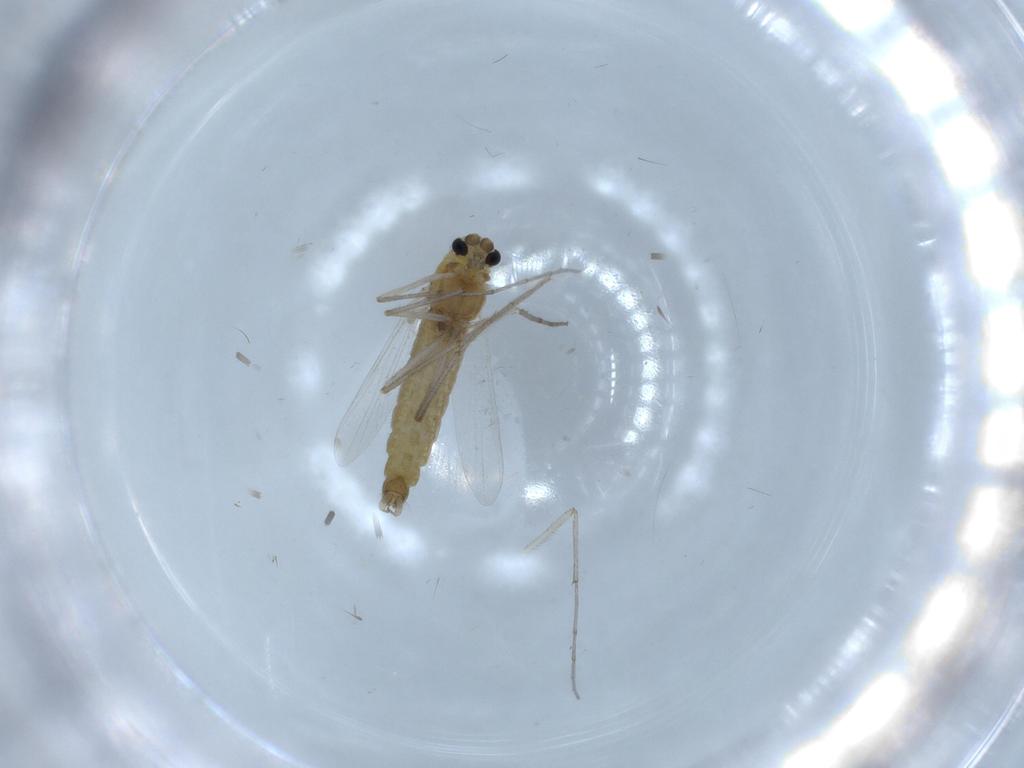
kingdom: Animalia
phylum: Arthropoda
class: Insecta
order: Diptera
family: Chironomidae
